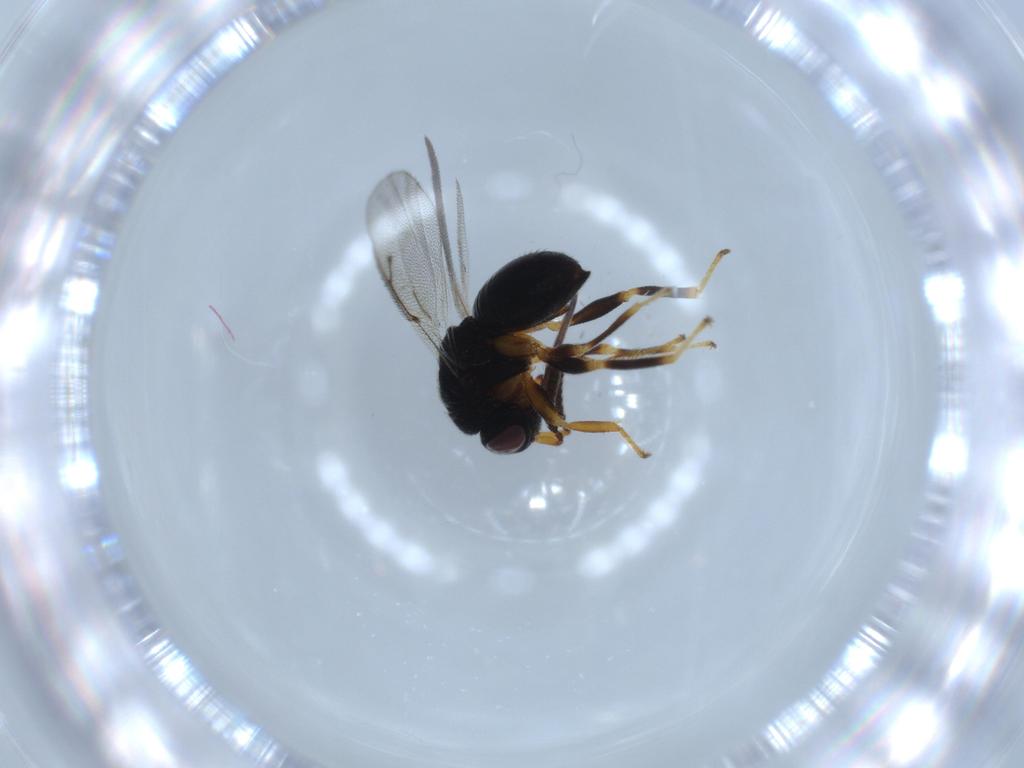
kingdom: Animalia
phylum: Arthropoda
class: Insecta
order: Hymenoptera
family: Eurytomidae
